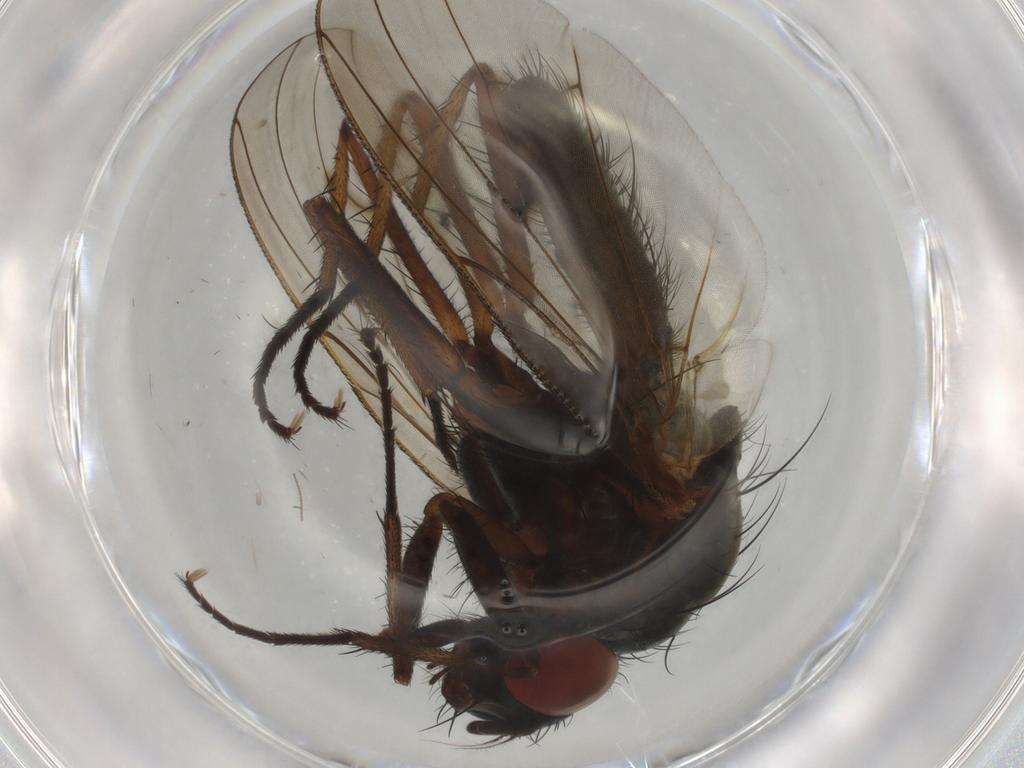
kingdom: Animalia
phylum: Arthropoda
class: Insecta
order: Diptera
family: Anthomyiidae
